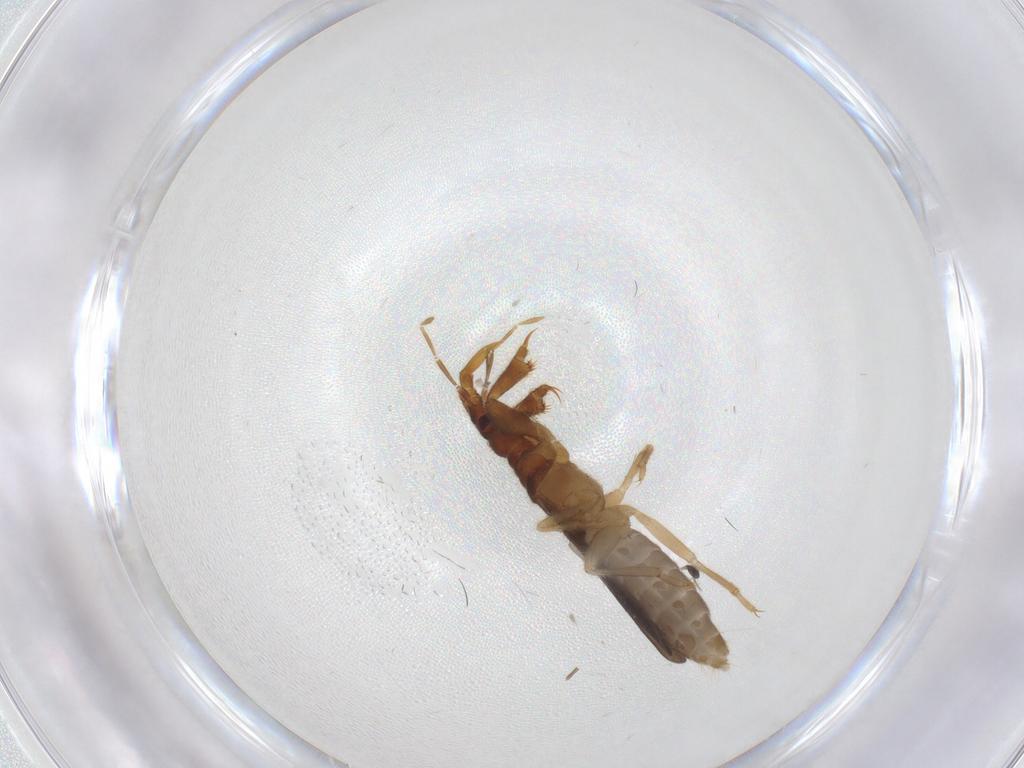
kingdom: Animalia
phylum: Arthropoda
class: Insecta
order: Hemiptera
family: Enicocephalidae
